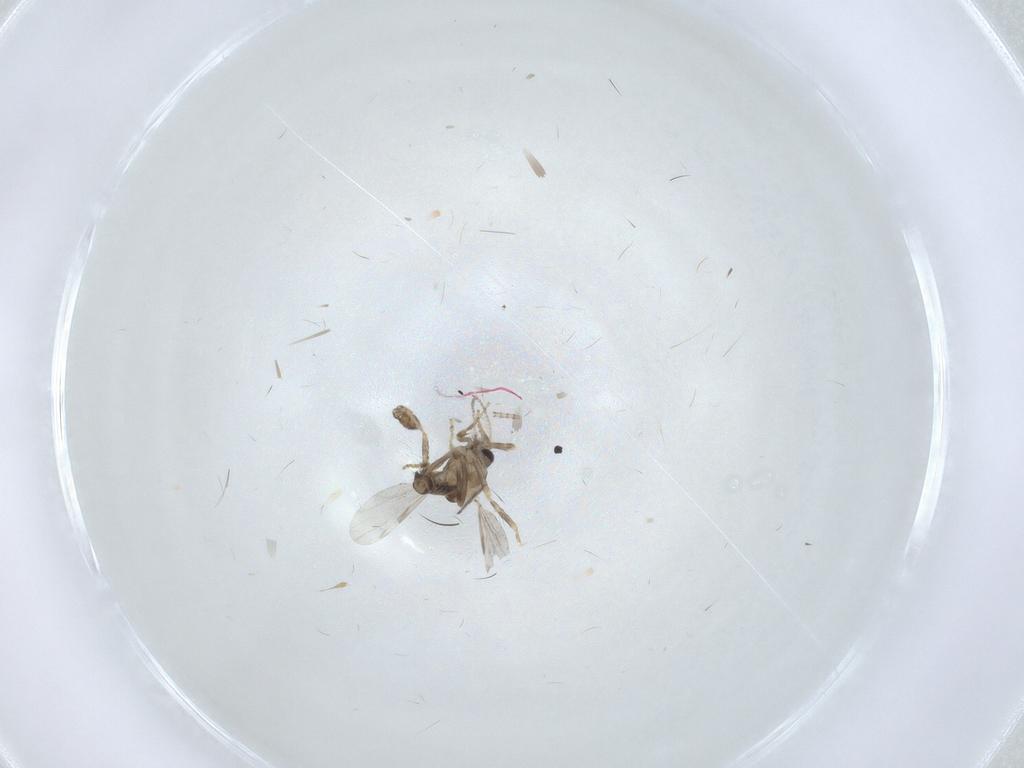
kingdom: Animalia
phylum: Arthropoda
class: Insecta
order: Diptera
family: Ceratopogonidae
